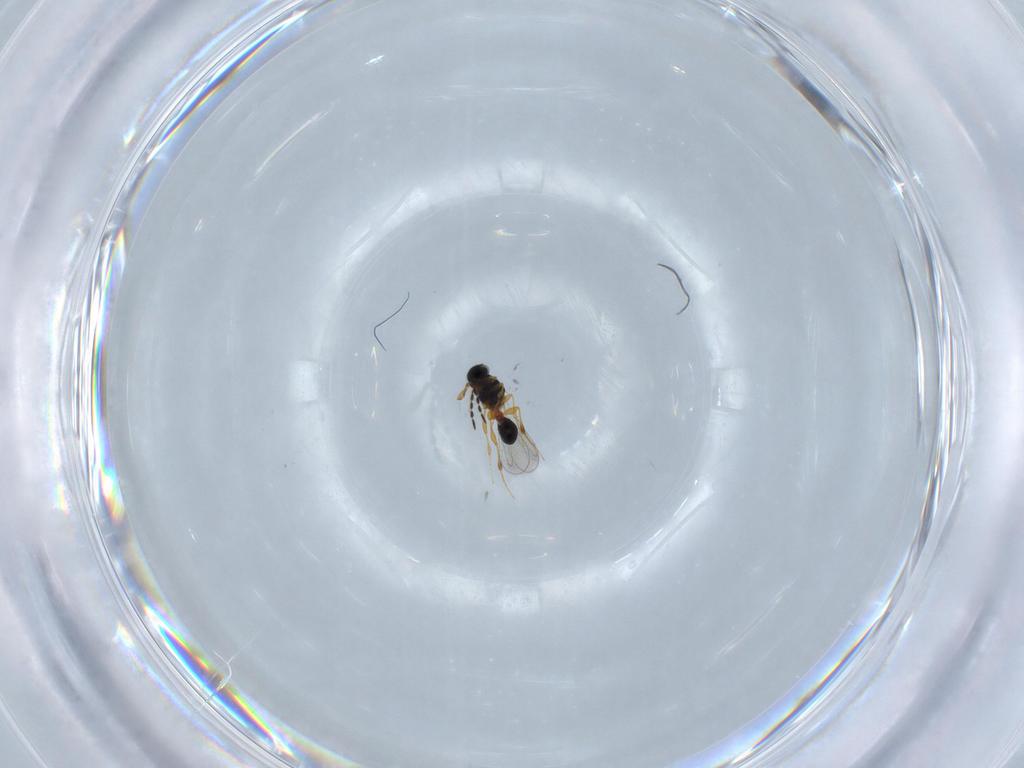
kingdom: Animalia
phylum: Arthropoda
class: Insecta
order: Hymenoptera
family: Platygastridae
